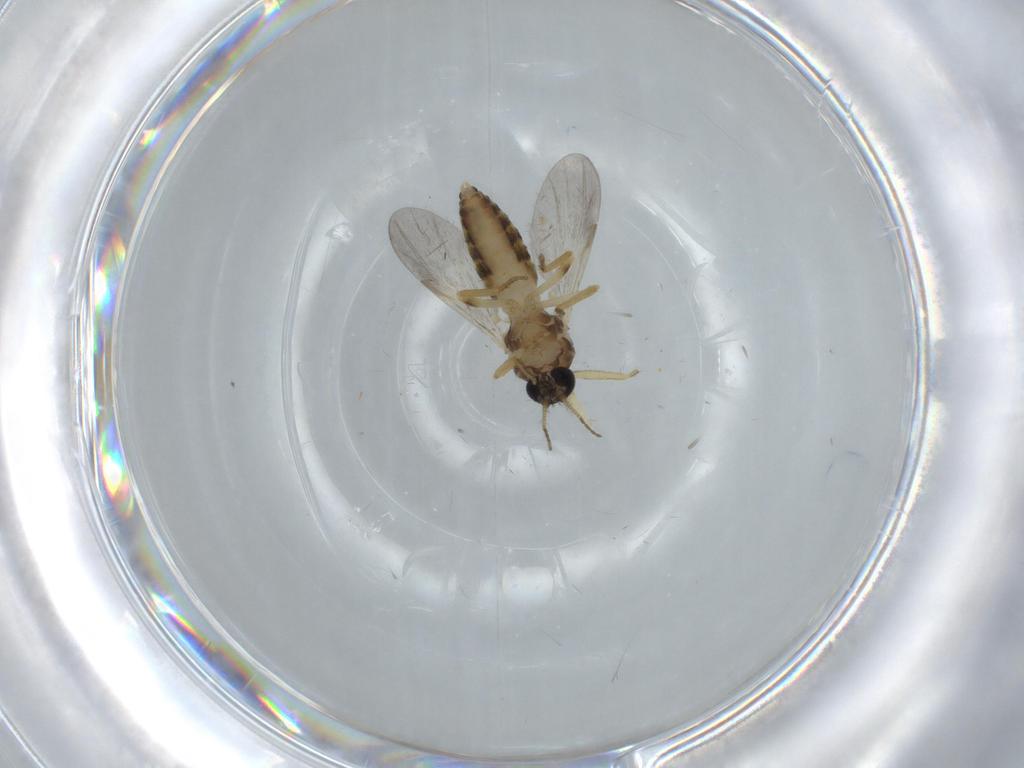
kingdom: Animalia
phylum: Arthropoda
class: Insecta
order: Diptera
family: Ceratopogonidae
